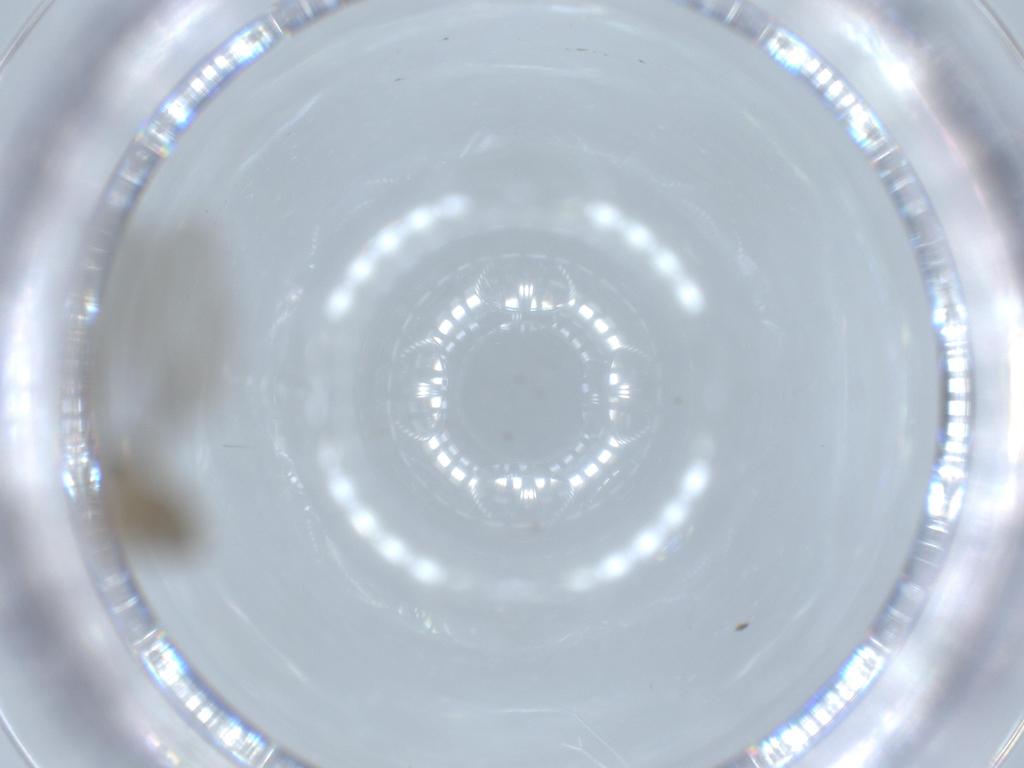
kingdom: Animalia
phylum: Arthropoda
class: Insecta
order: Diptera
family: Cecidomyiidae
